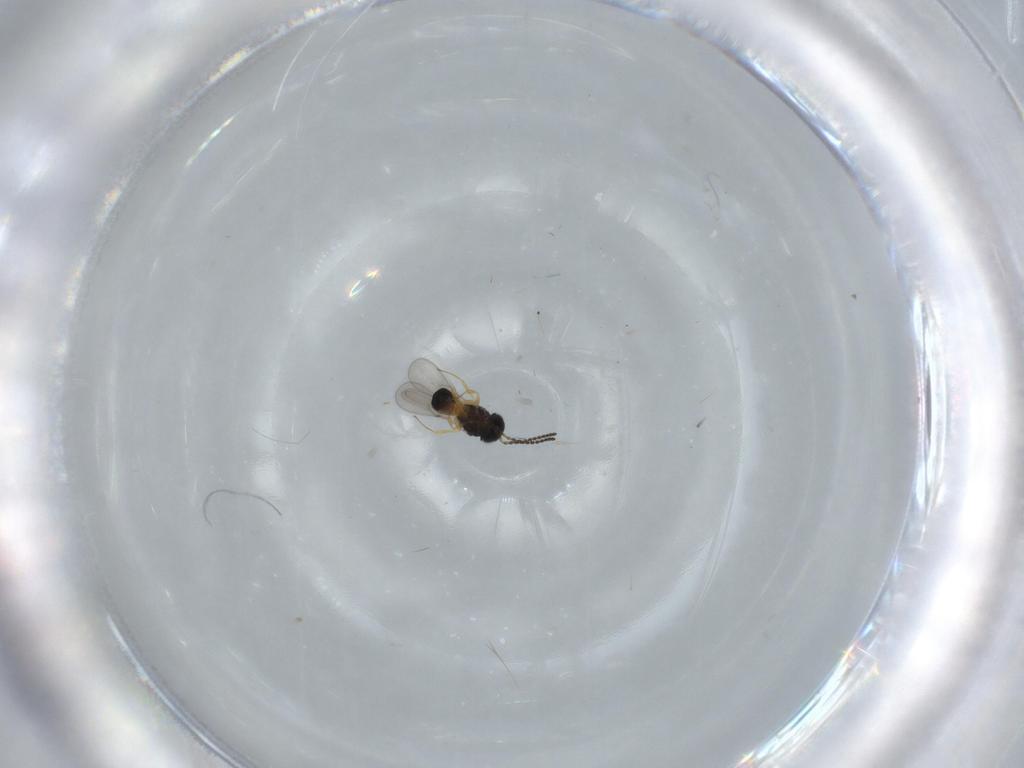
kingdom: Animalia
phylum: Arthropoda
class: Insecta
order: Hymenoptera
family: Scelionidae
